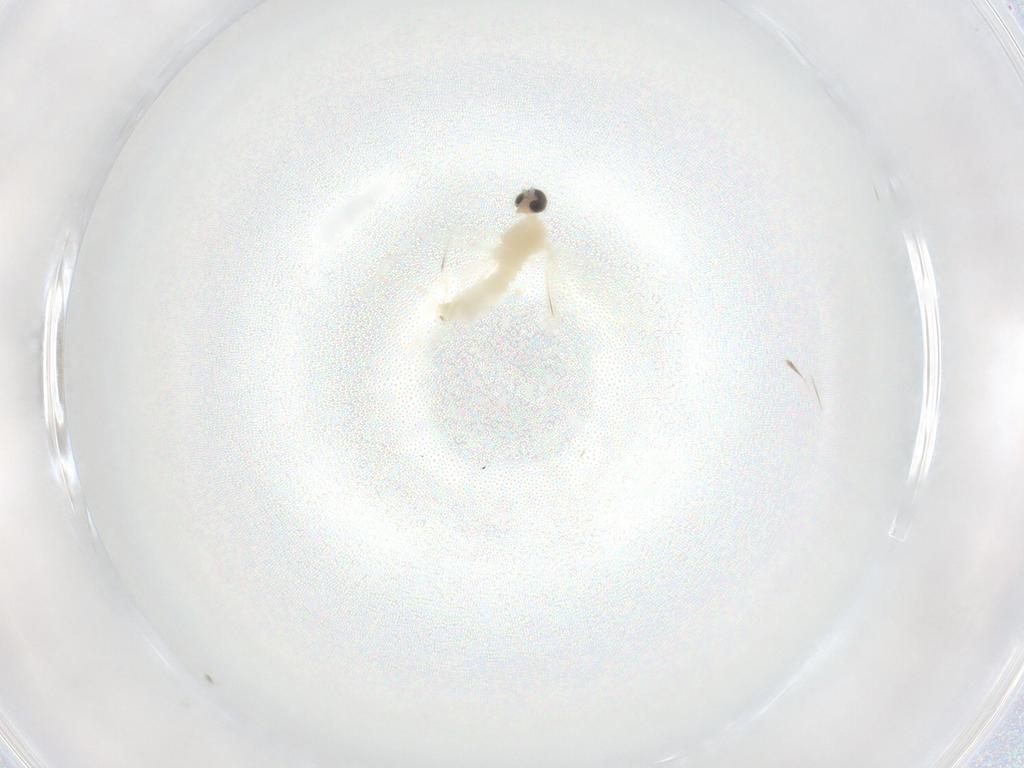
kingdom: Animalia
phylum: Arthropoda
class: Insecta
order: Diptera
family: Cecidomyiidae
